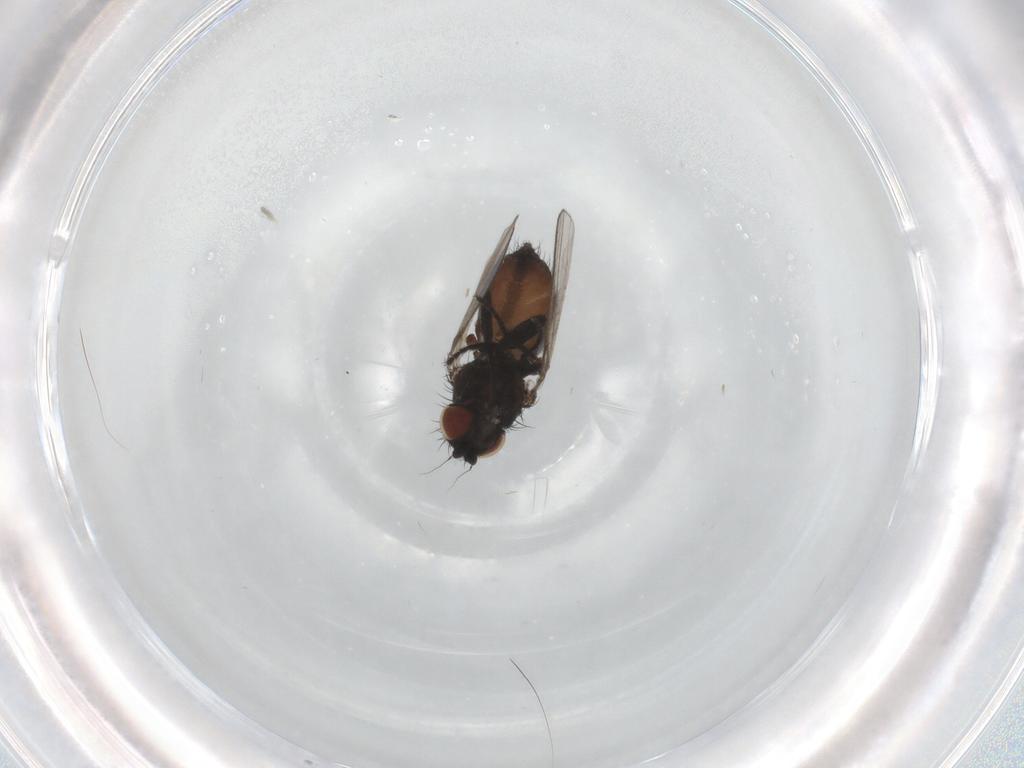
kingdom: Animalia
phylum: Arthropoda
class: Insecta
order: Diptera
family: Milichiidae
